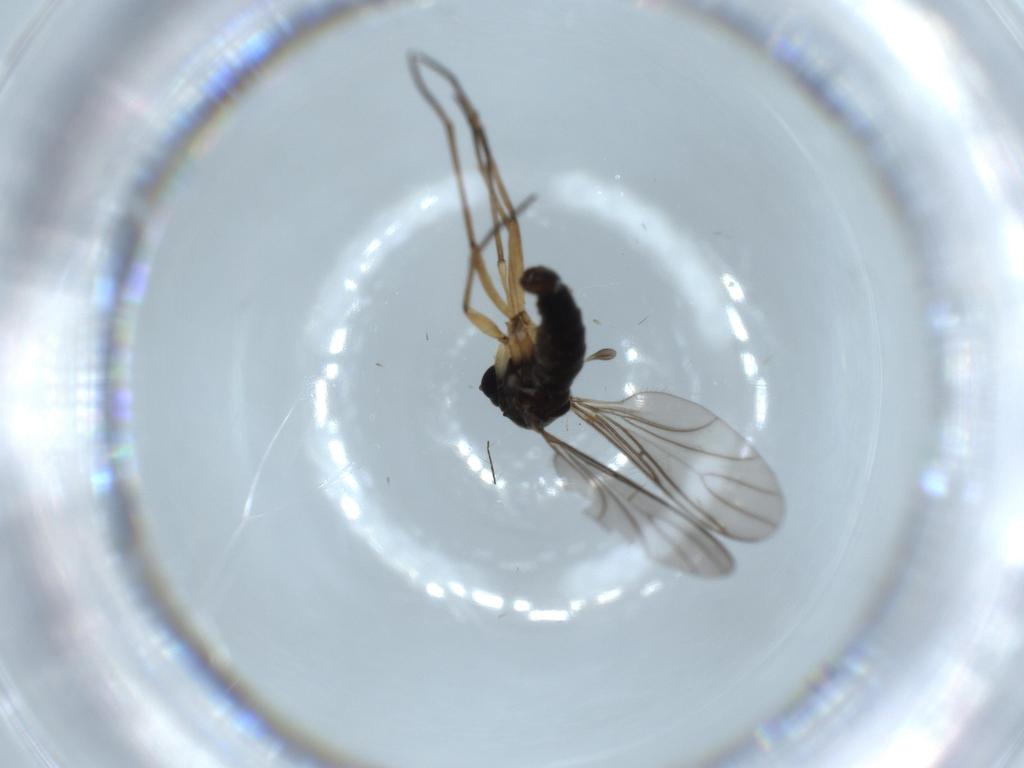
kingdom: Animalia
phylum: Arthropoda
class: Insecta
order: Diptera
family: Sciaridae
